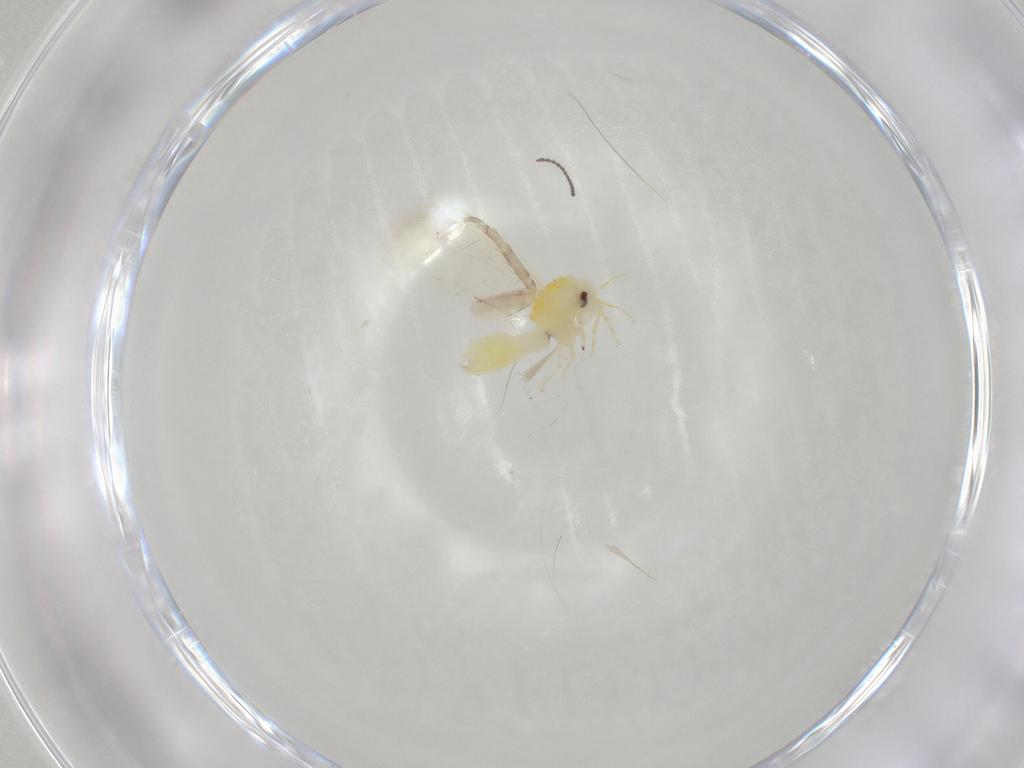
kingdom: Animalia
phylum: Arthropoda
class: Insecta
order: Hemiptera
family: Aleyrodidae
